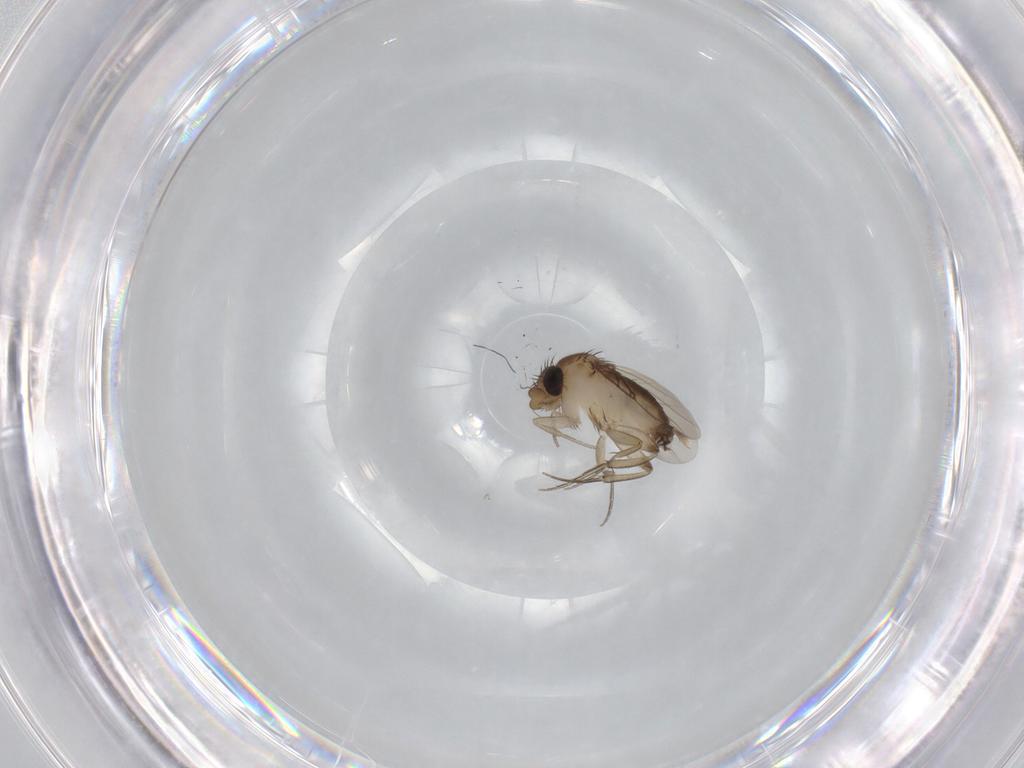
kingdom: Animalia
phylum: Arthropoda
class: Insecta
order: Diptera
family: Phoridae
